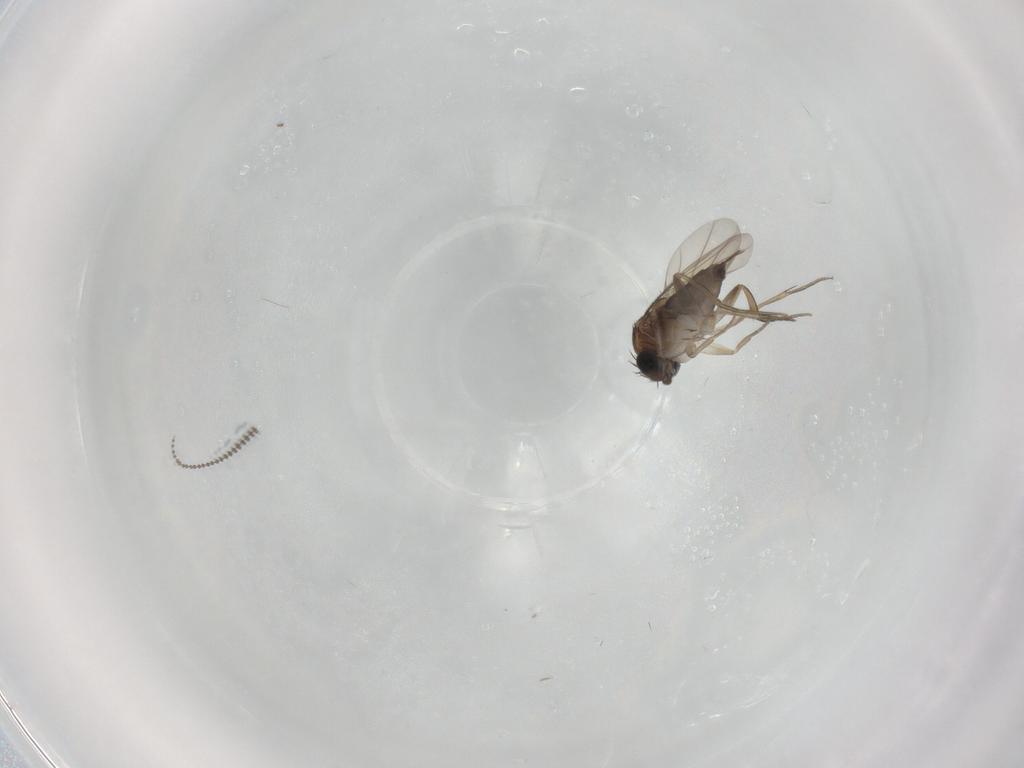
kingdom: Animalia
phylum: Arthropoda
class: Insecta
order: Diptera
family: Phoridae
